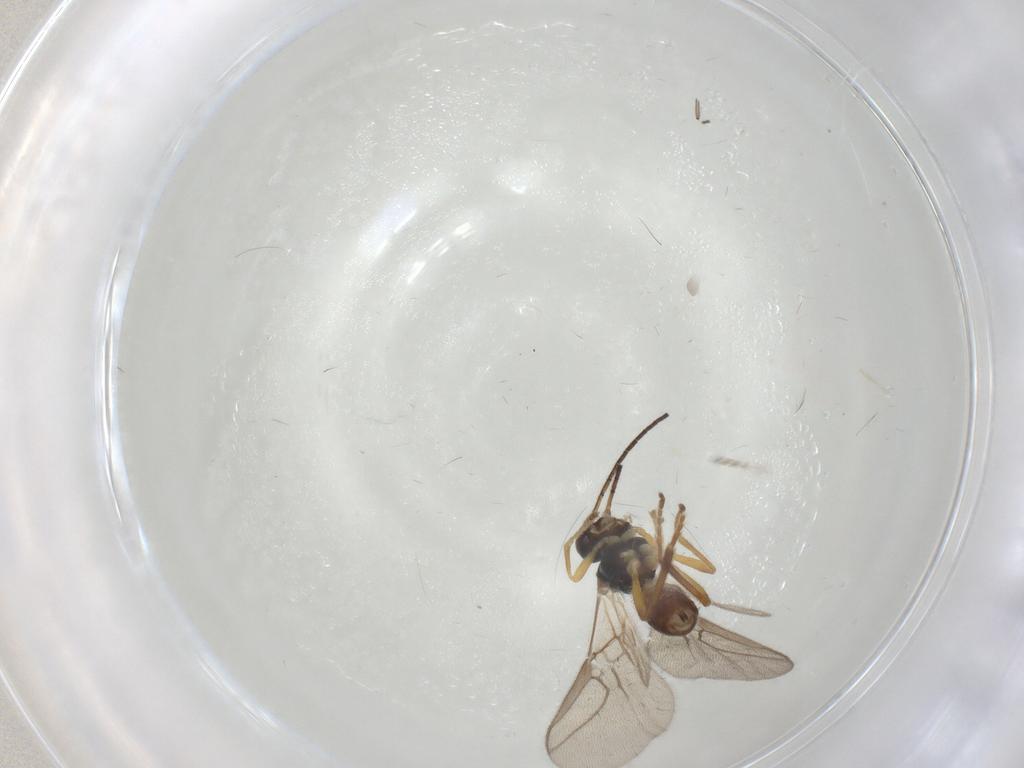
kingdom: Animalia
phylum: Arthropoda
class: Insecta
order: Hymenoptera
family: Braconidae
